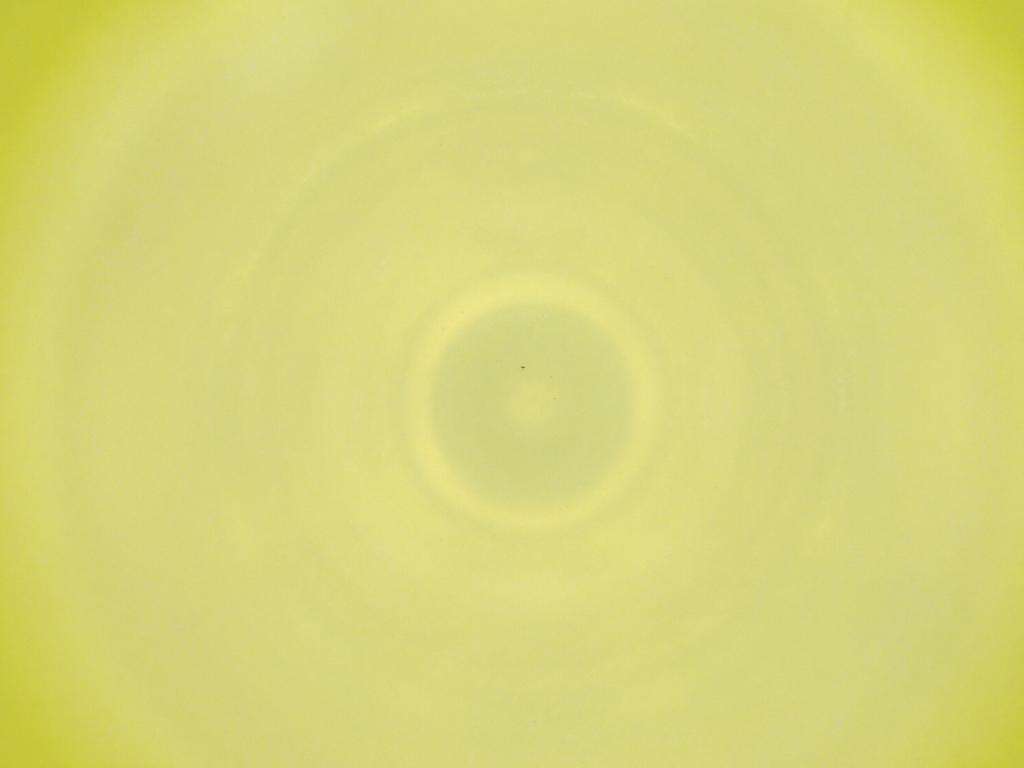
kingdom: Animalia
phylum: Arthropoda
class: Insecta
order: Diptera
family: Cecidomyiidae
